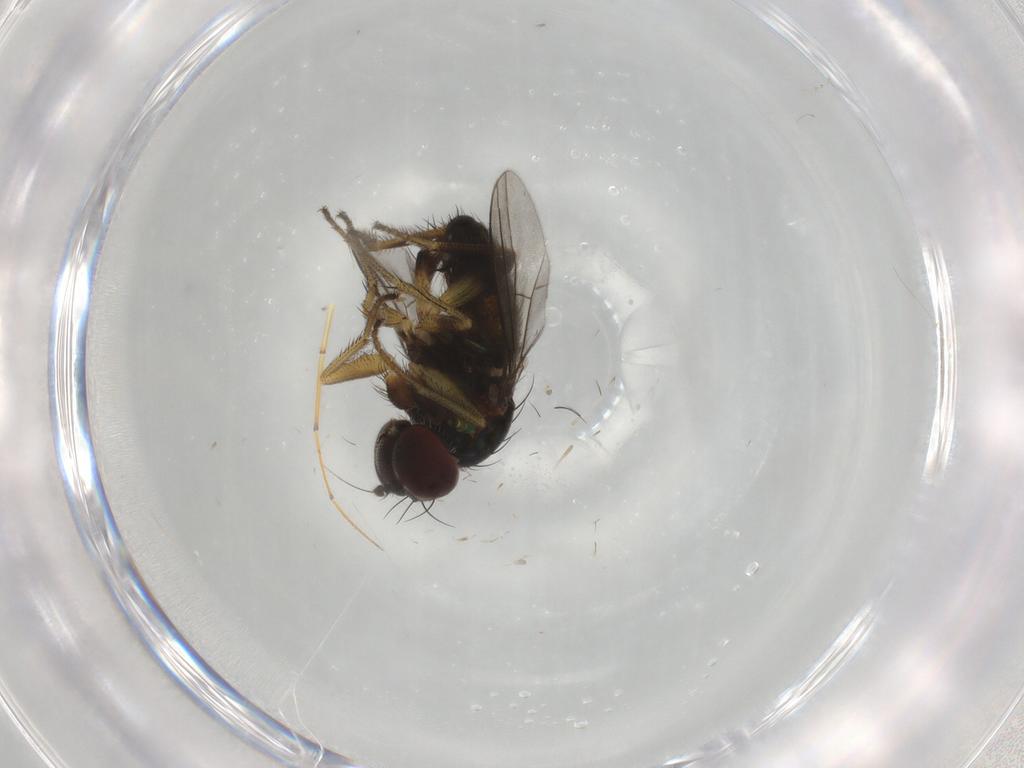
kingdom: Animalia
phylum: Arthropoda
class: Insecta
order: Diptera
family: Dolichopodidae
